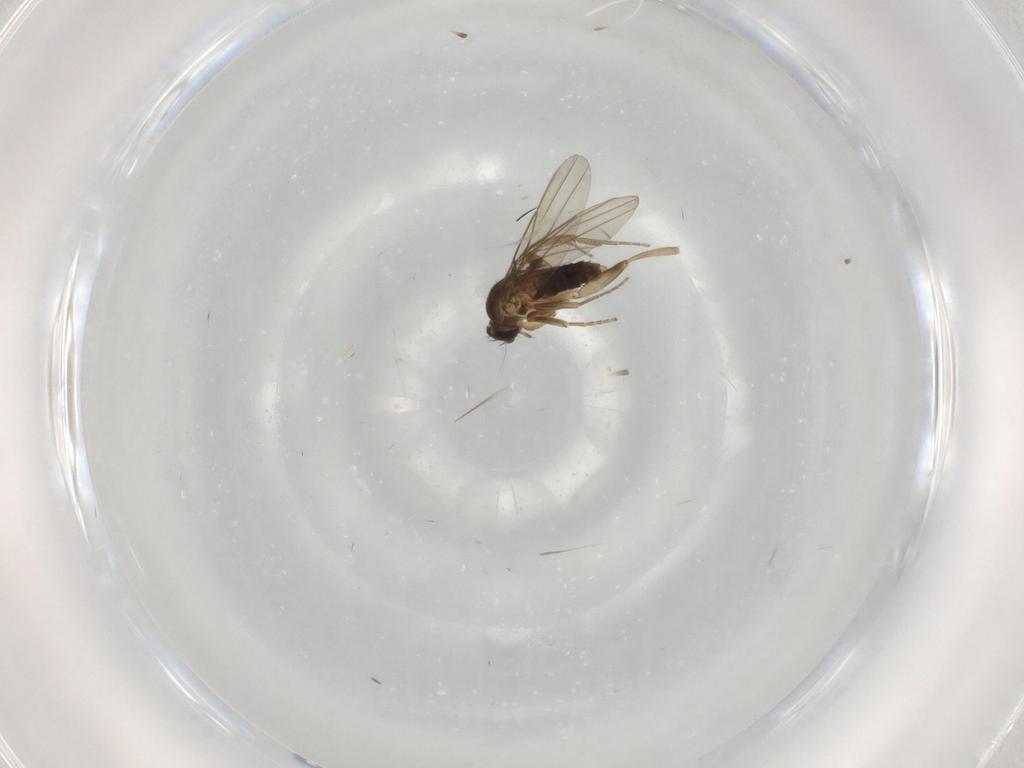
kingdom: Animalia
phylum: Arthropoda
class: Insecta
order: Diptera
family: Phoridae
